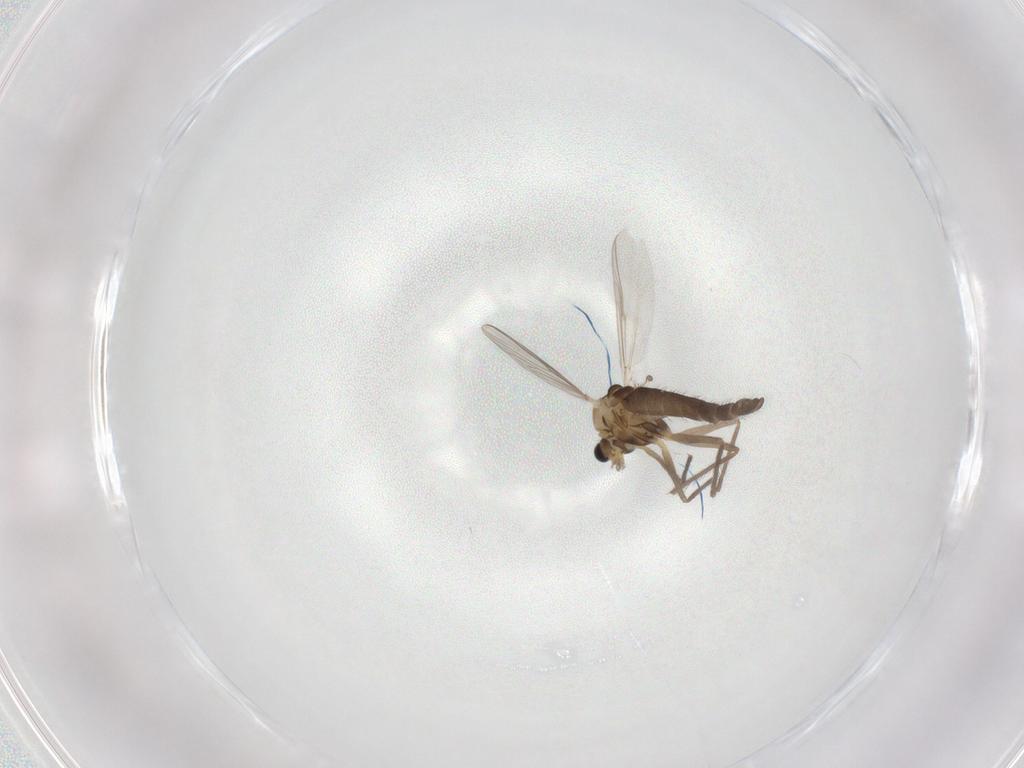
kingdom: Animalia
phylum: Arthropoda
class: Insecta
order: Diptera
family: Chironomidae
